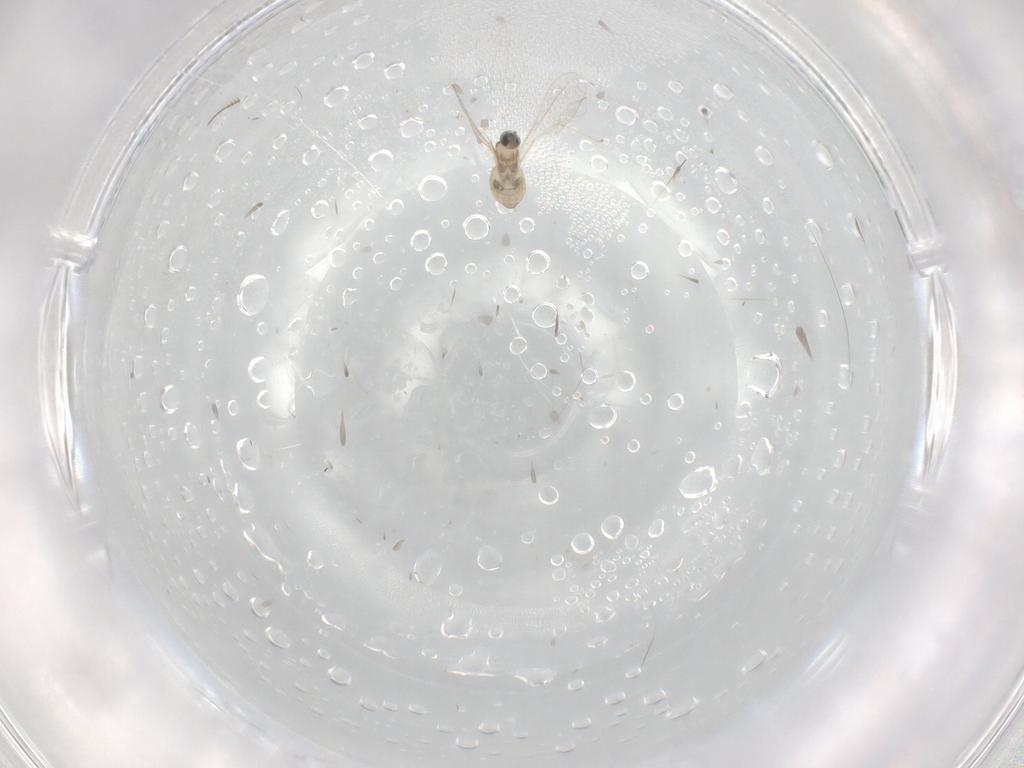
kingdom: Animalia
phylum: Arthropoda
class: Insecta
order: Diptera
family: Cecidomyiidae
